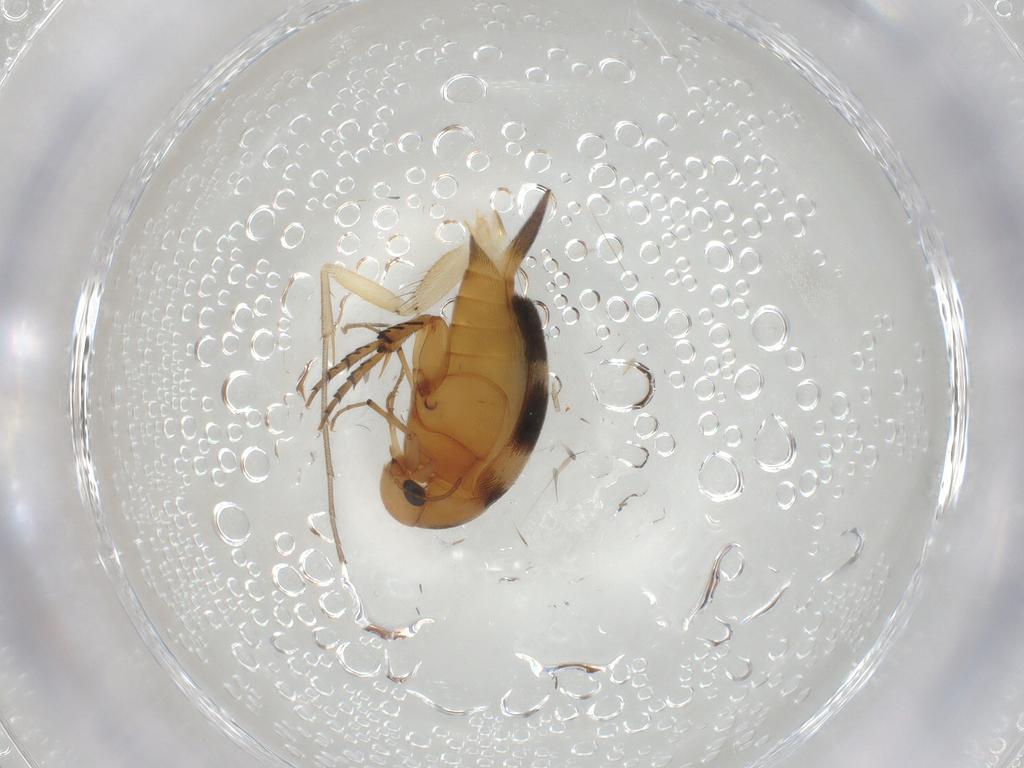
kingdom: Animalia
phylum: Arthropoda
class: Insecta
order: Coleoptera
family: Mordellidae
